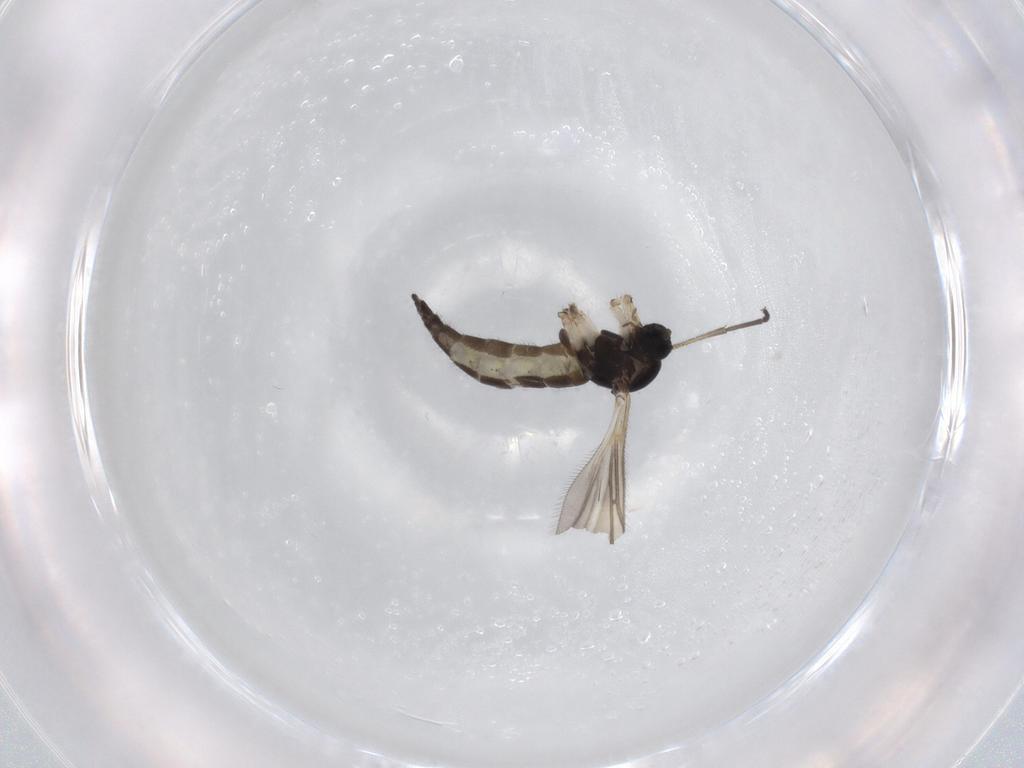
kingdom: Animalia
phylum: Arthropoda
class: Insecta
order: Diptera
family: Sciaridae
